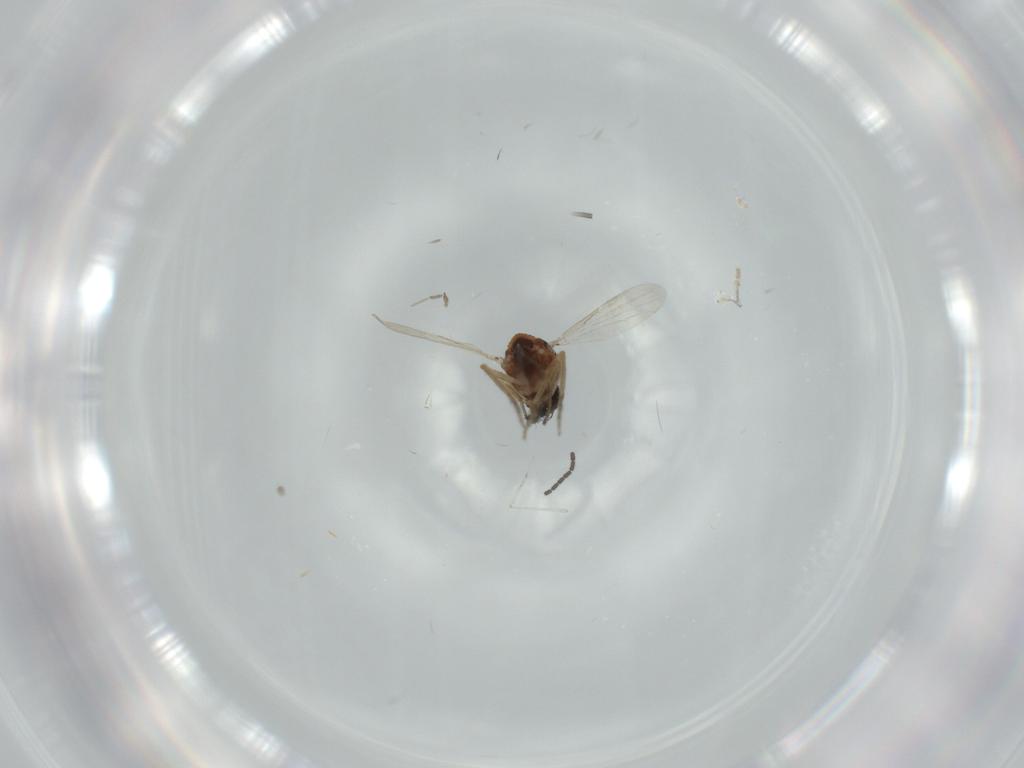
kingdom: Animalia
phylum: Arthropoda
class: Insecta
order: Diptera
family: Sciaridae
